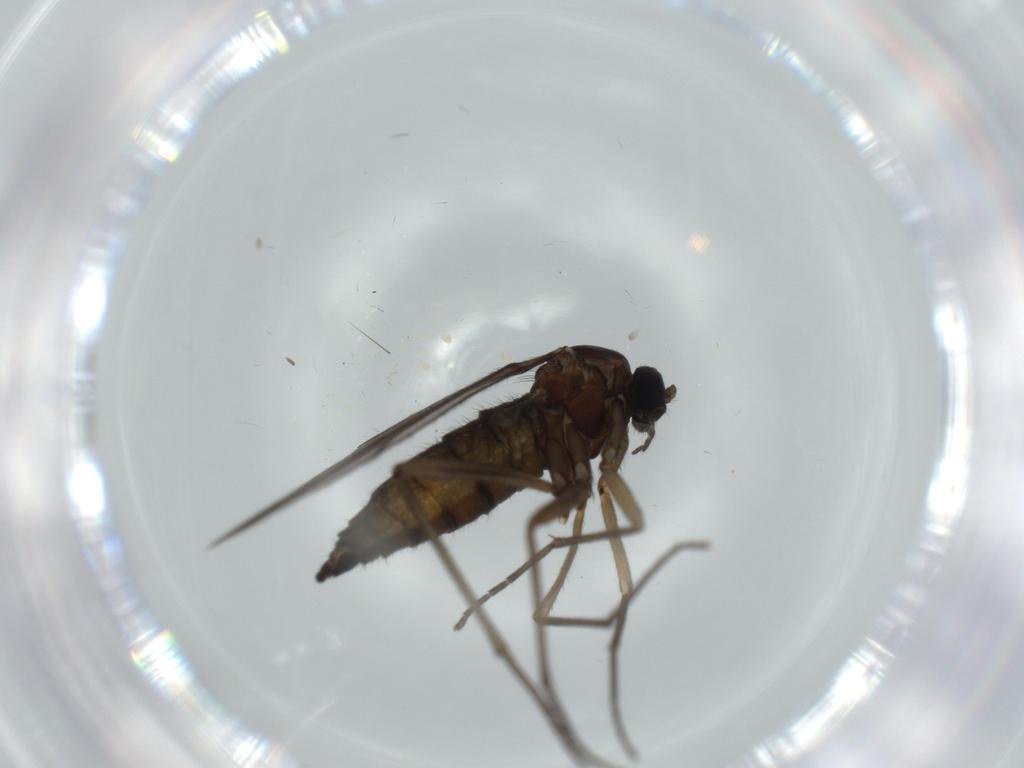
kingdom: Animalia
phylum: Arthropoda
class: Insecta
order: Diptera
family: Sciaridae
